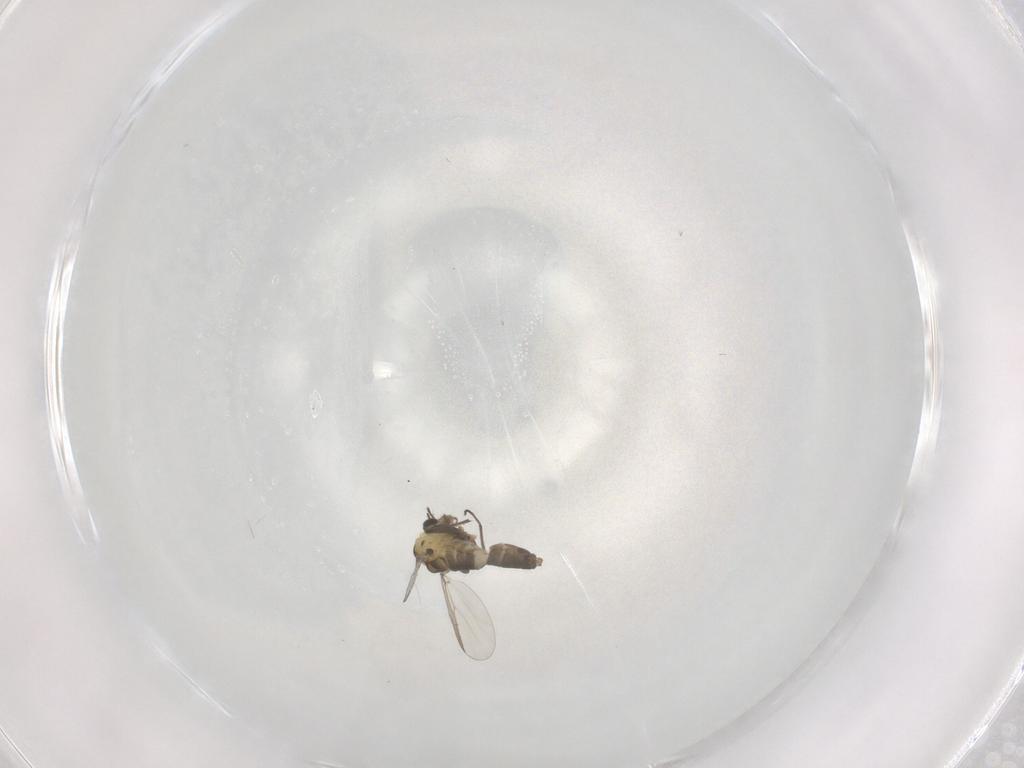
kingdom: Animalia
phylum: Arthropoda
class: Insecta
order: Diptera
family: Chironomidae
